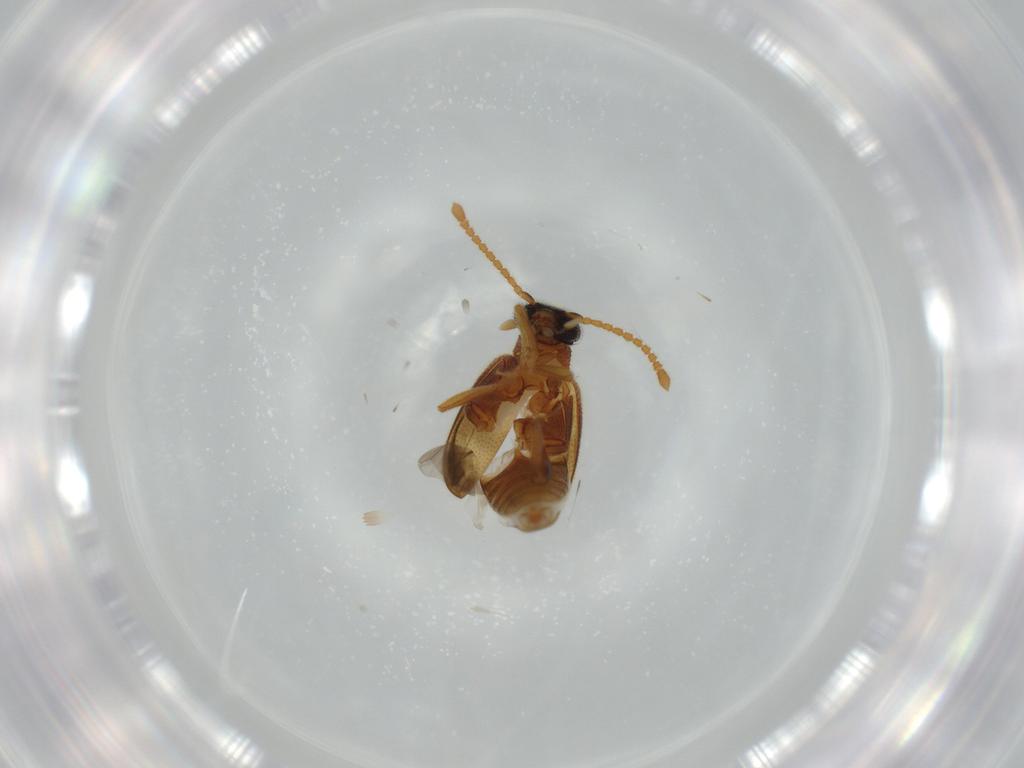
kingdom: Animalia
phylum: Arthropoda
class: Insecta
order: Coleoptera
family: Aderidae
